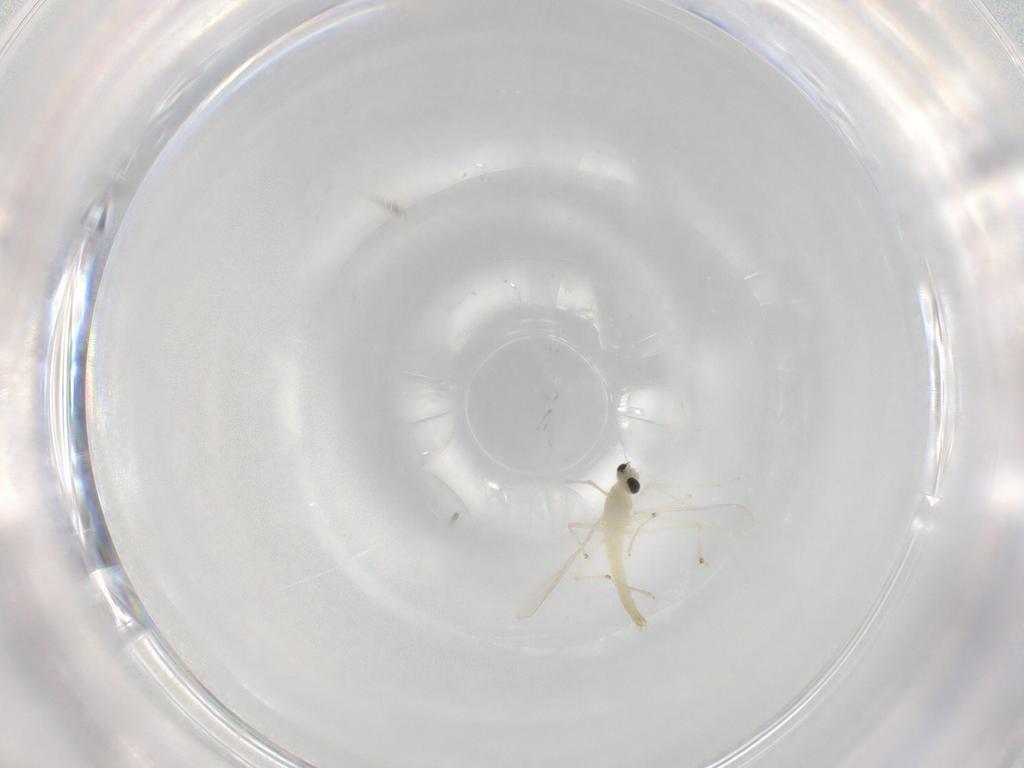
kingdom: Animalia
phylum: Arthropoda
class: Insecta
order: Diptera
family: Chironomidae
